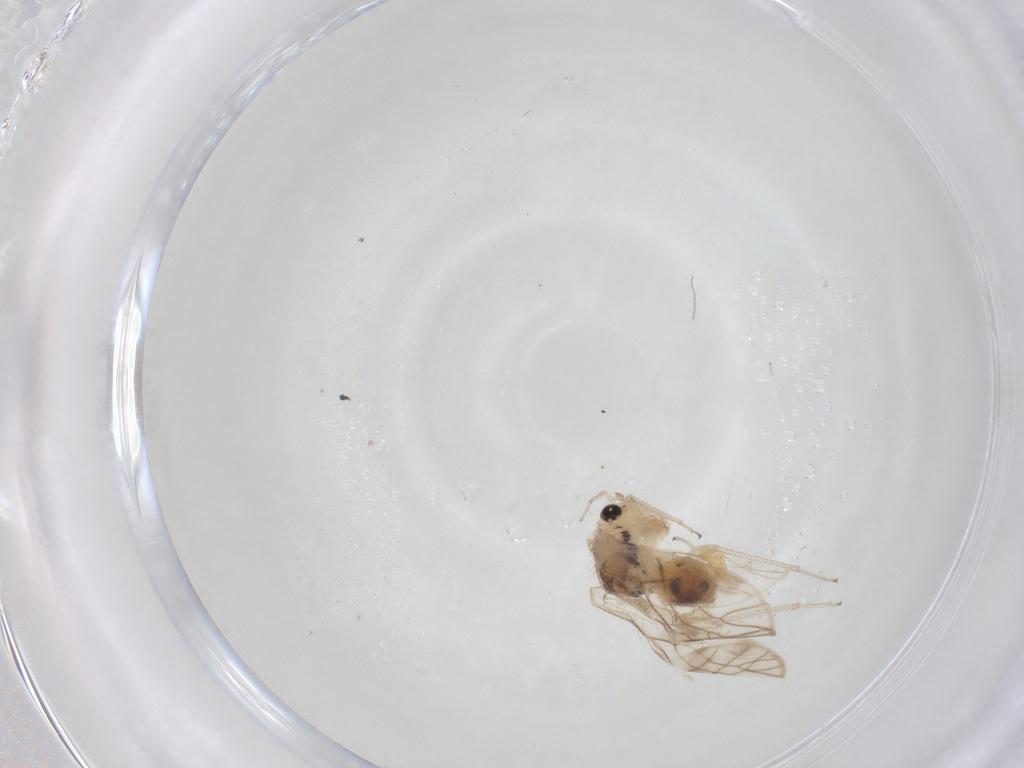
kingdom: Animalia
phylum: Arthropoda
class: Insecta
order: Psocodea
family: Caeciliusidae
